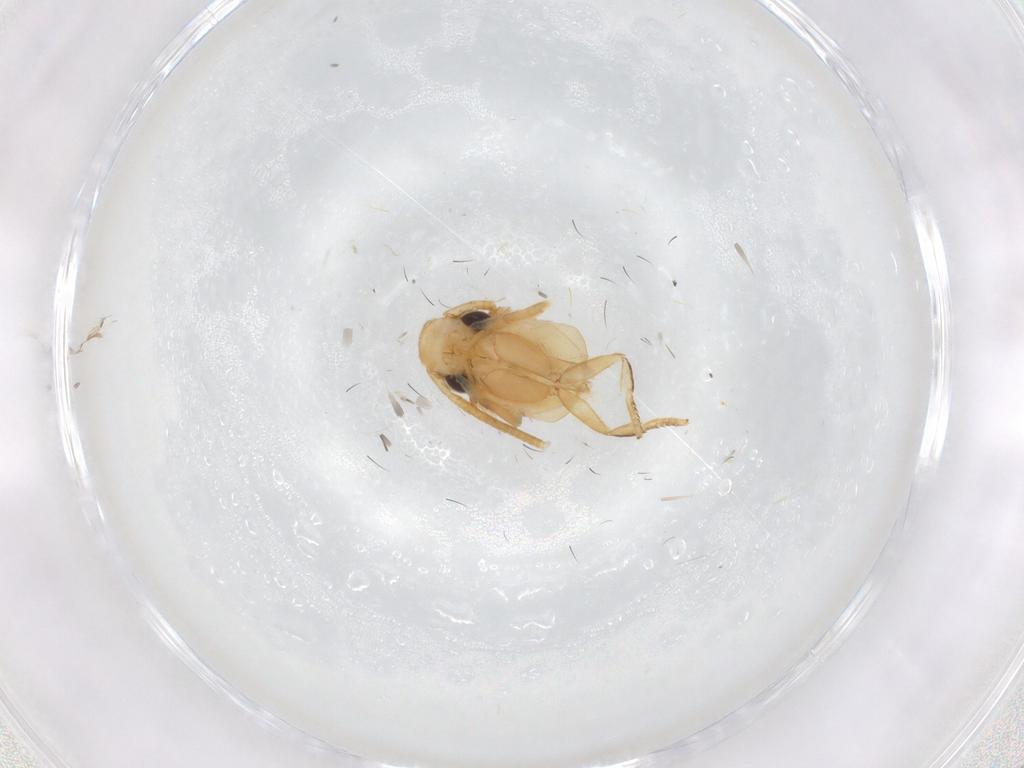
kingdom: Animalia
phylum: Arthropoda
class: Insecta
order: Lepidoptera
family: Tineidae
